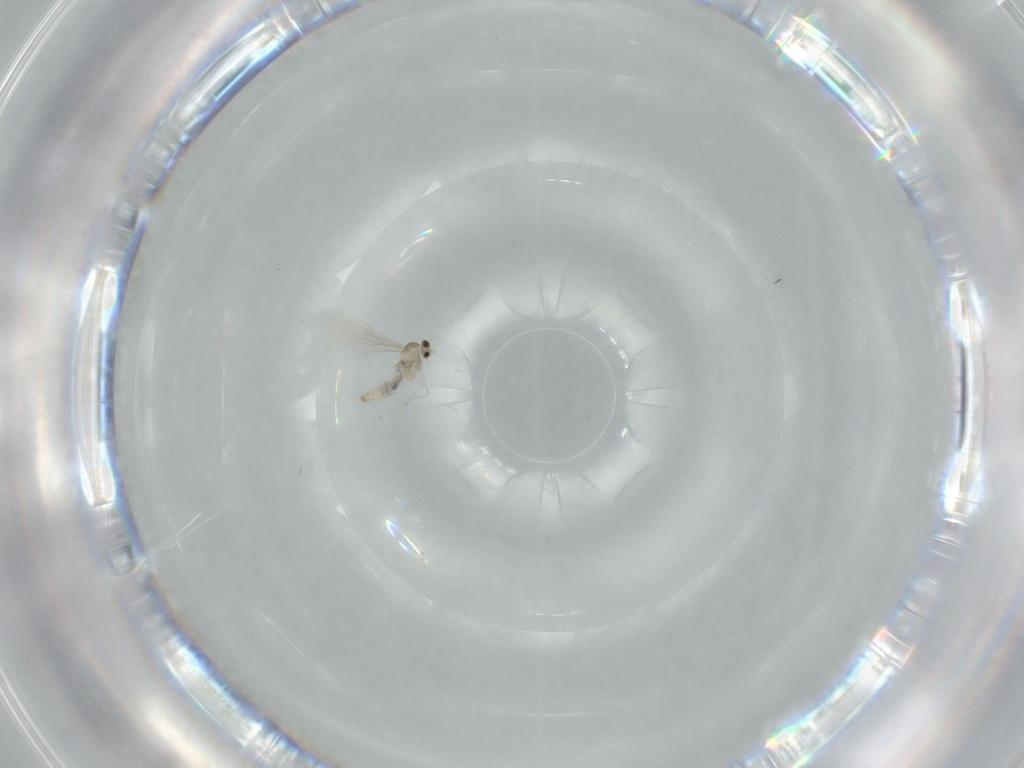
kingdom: Animalia
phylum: Arthropoda
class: Insecta
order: Diptera
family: Cecidomyiidae
